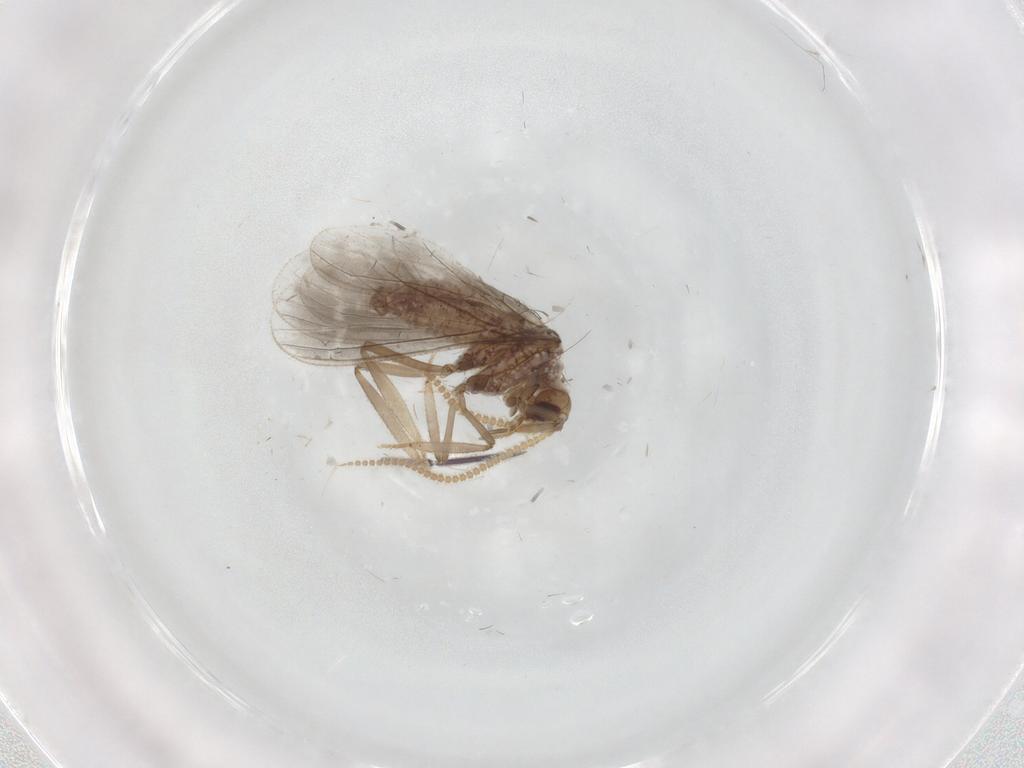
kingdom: Animalia
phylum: Arthropoda
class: Insecta
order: Neuroptera
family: Coniopterygidae
